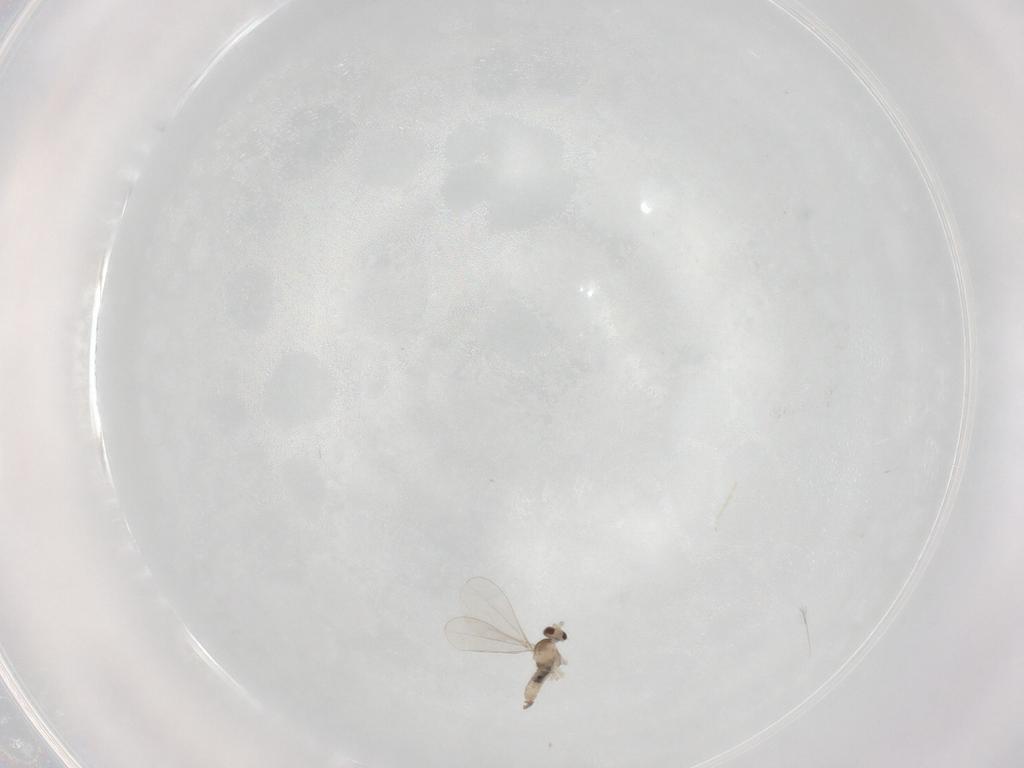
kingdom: Animalia
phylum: Arthropoda
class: Insecta
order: Diptera
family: Cecidomyiidae
